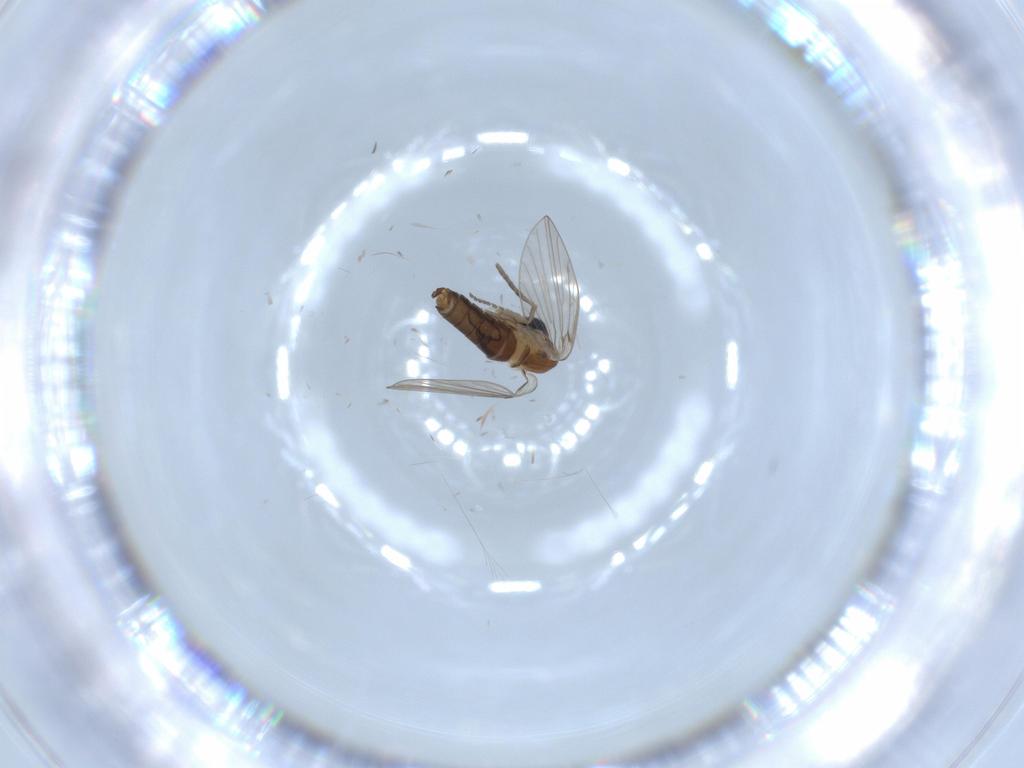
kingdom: Animalia
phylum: Arthropoda
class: Insecta
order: Diptera
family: Psychodidae
